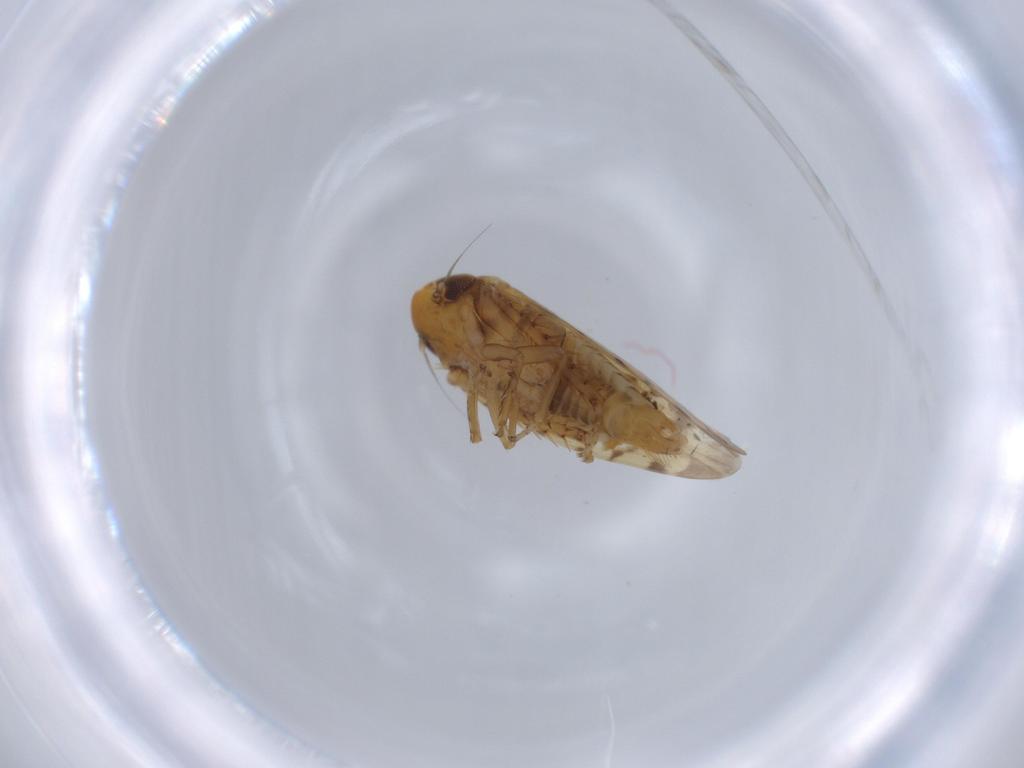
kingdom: Animalia
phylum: Arthropoda
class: Insecta
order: Hemiptera
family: Cicadellidae
